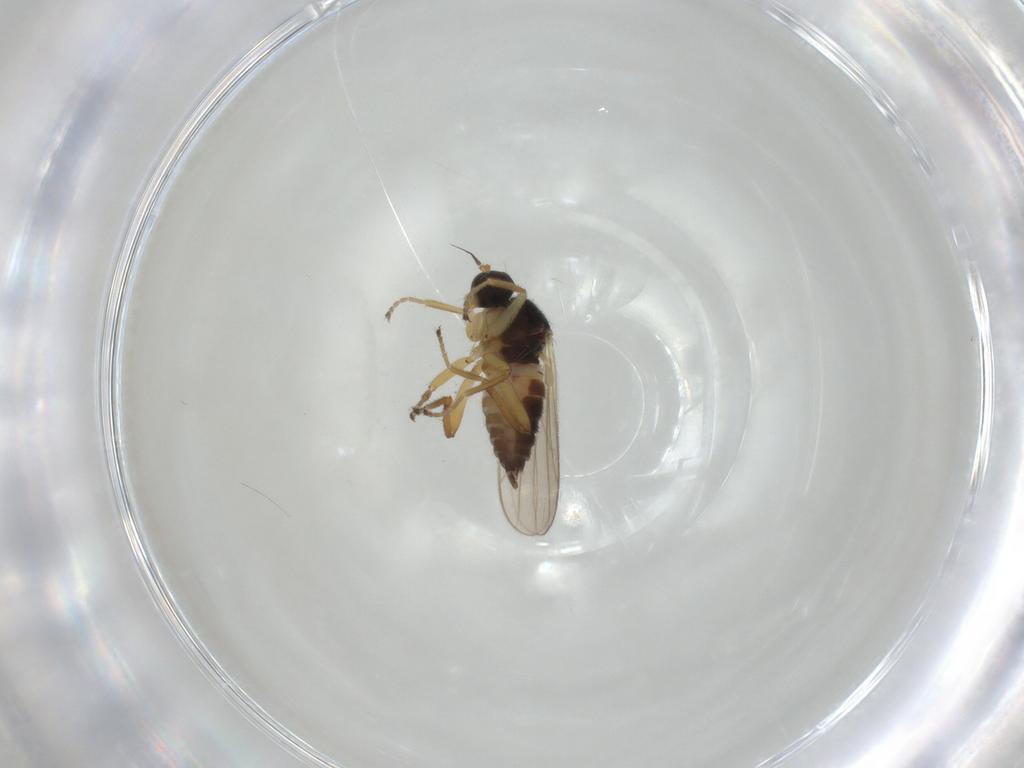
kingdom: Animalia
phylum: Arthropoda
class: Insecta
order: Diptera
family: Hybotidae
